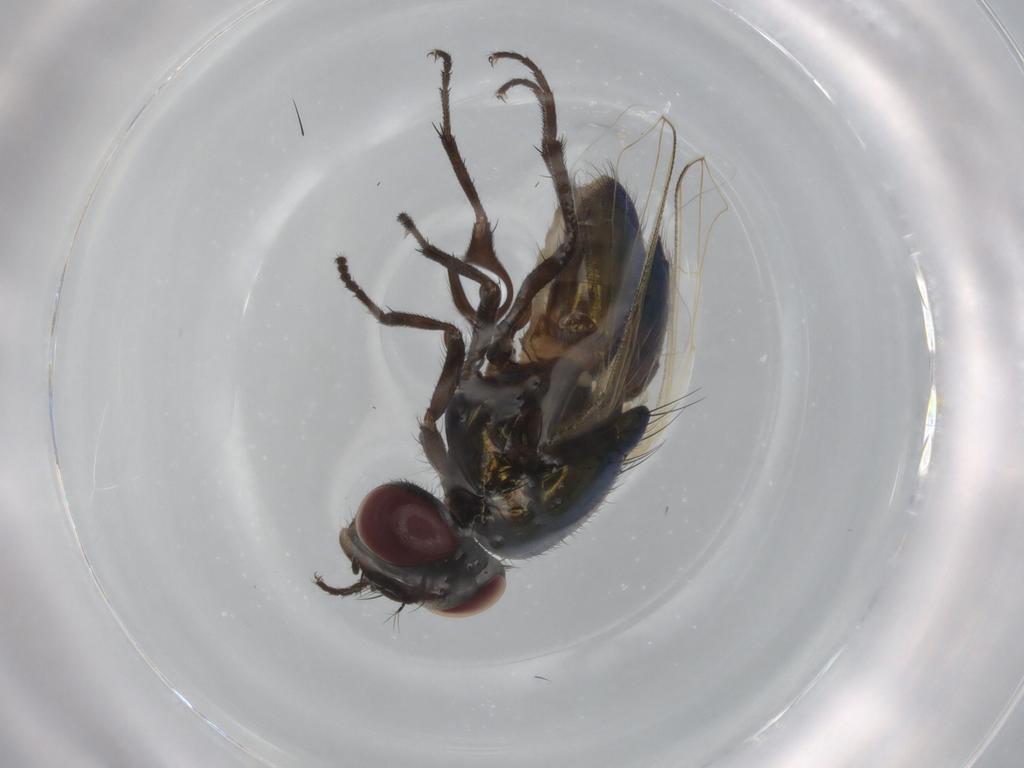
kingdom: Animalia
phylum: Arthropoda
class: Insecta
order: Diptera
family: Muscidae
